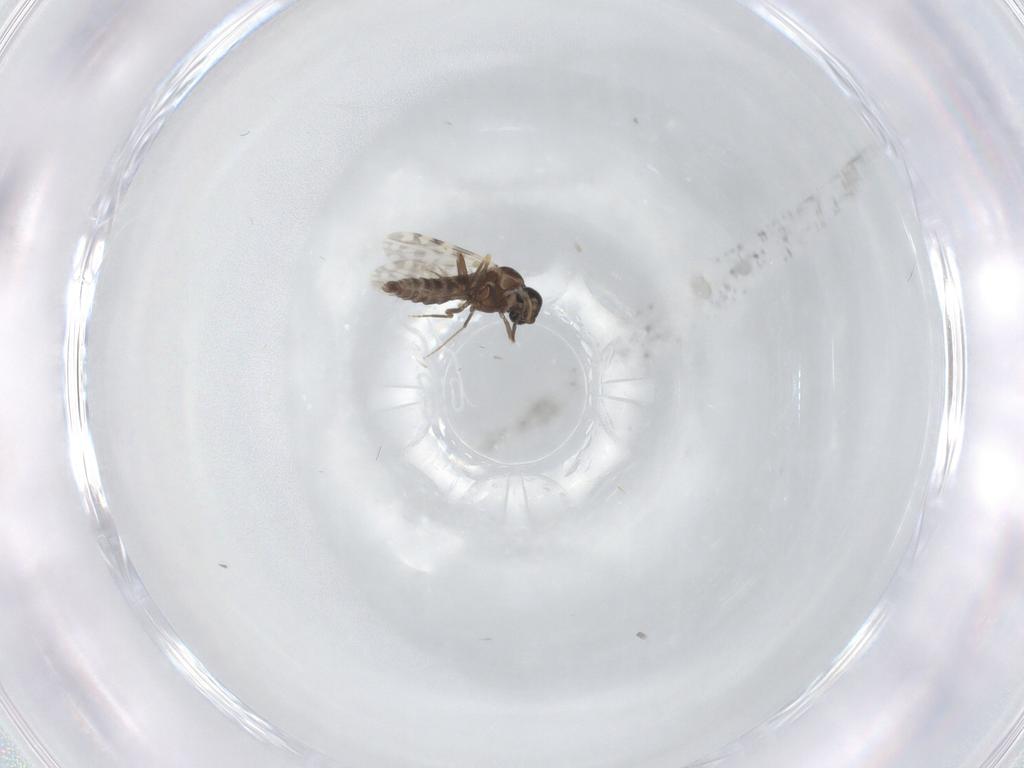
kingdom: Animalia
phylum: Arthropoda
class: Insecta
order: Diptera
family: Ceratopogonidae
